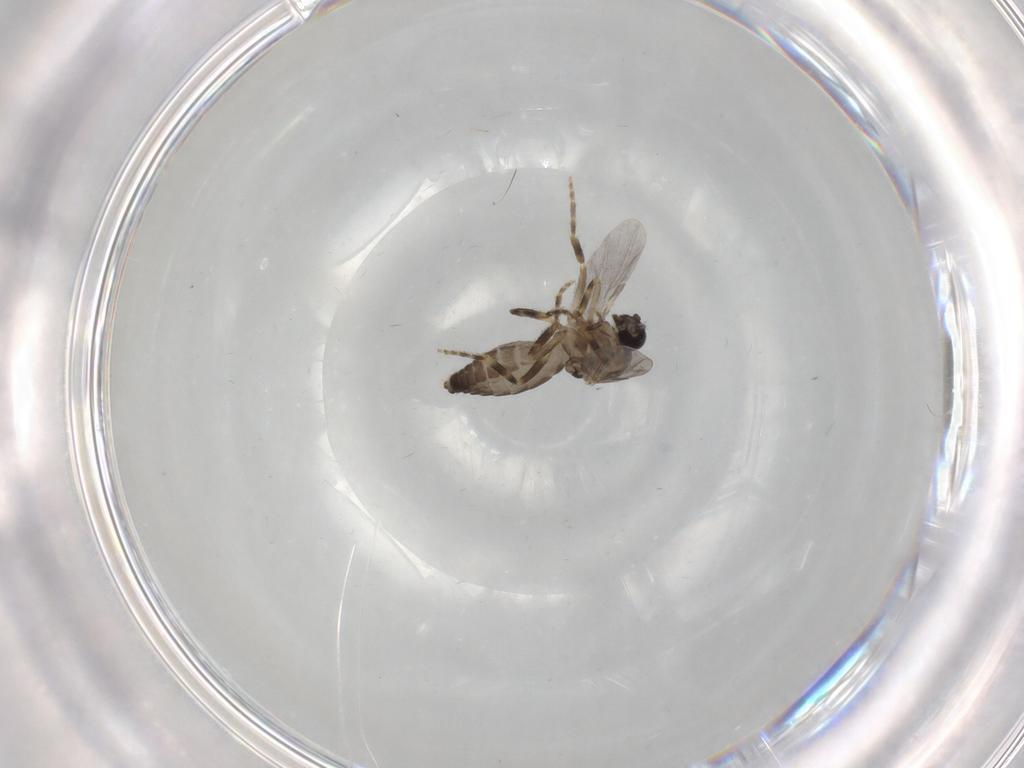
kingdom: Animalia
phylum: Arthropoda
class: Insecta
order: Diptera
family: Ceratopogonidae
